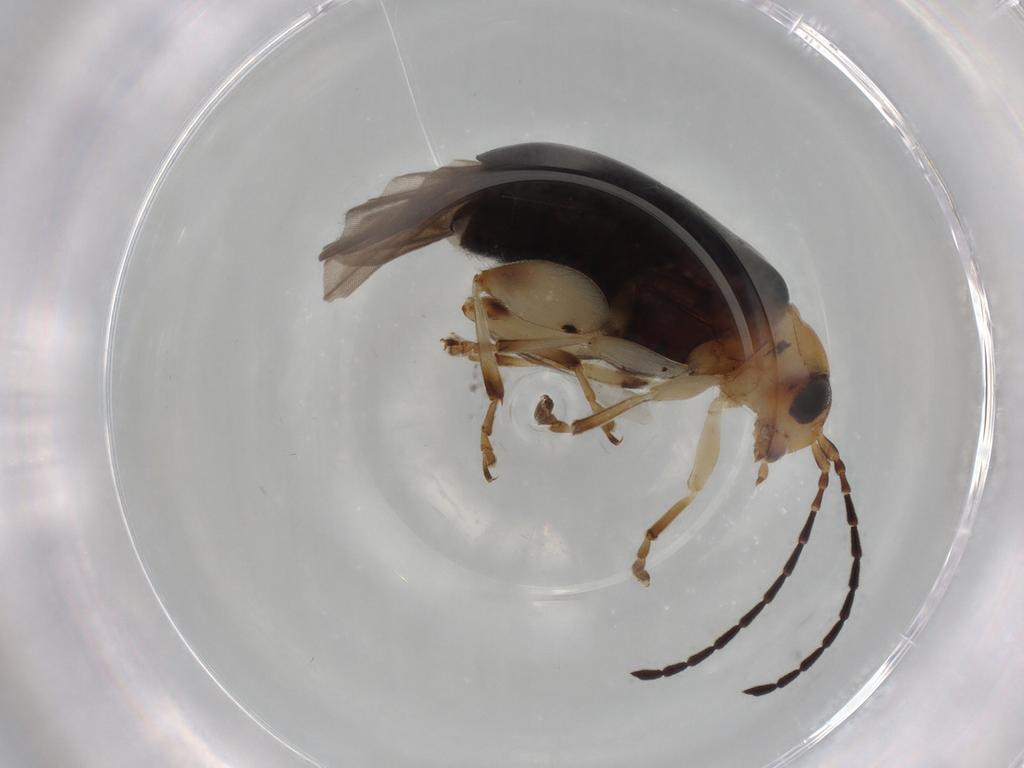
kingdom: Animalia
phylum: Arthropoda
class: Insecta
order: Coleoptera
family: Chrysomelidae
